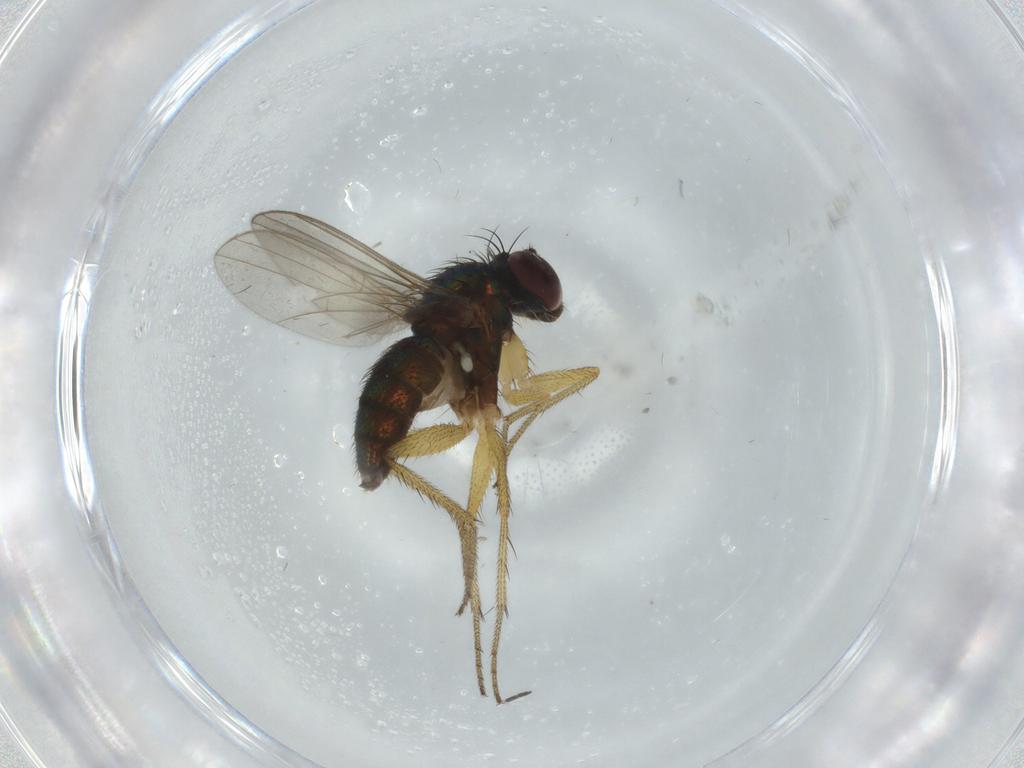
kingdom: Animalia
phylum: Arthropoda
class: Insecta
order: Diptera
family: Sciaridae
